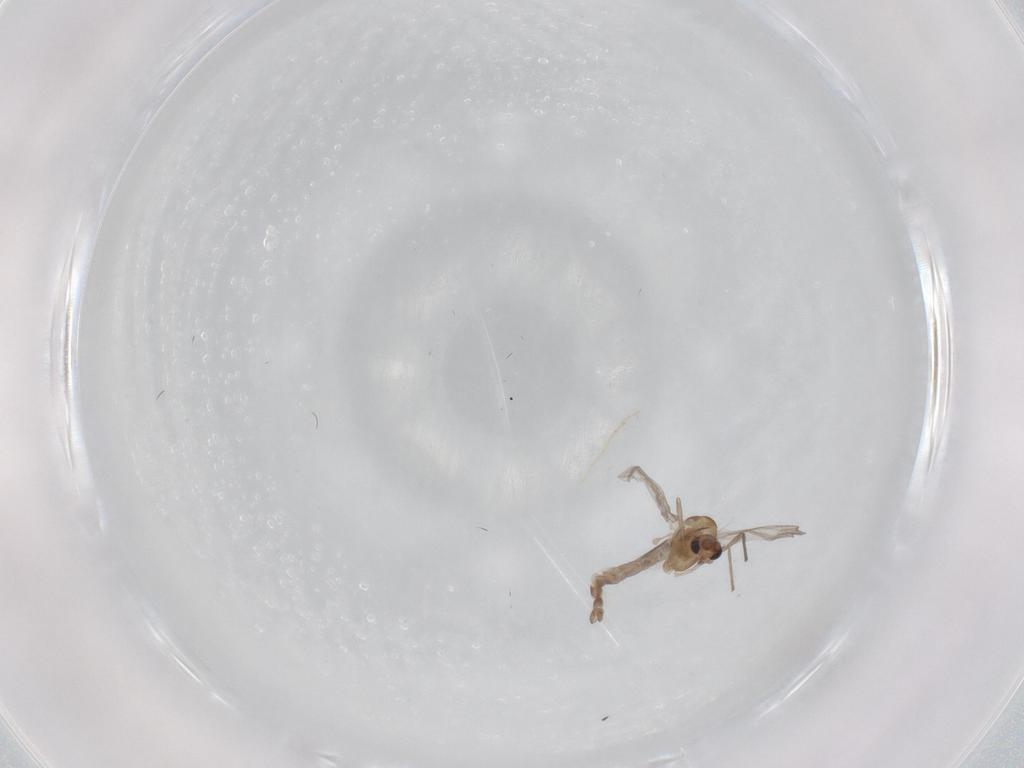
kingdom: Animalia
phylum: Arthropoda
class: Insecta
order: Diptera
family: Chironomidae
